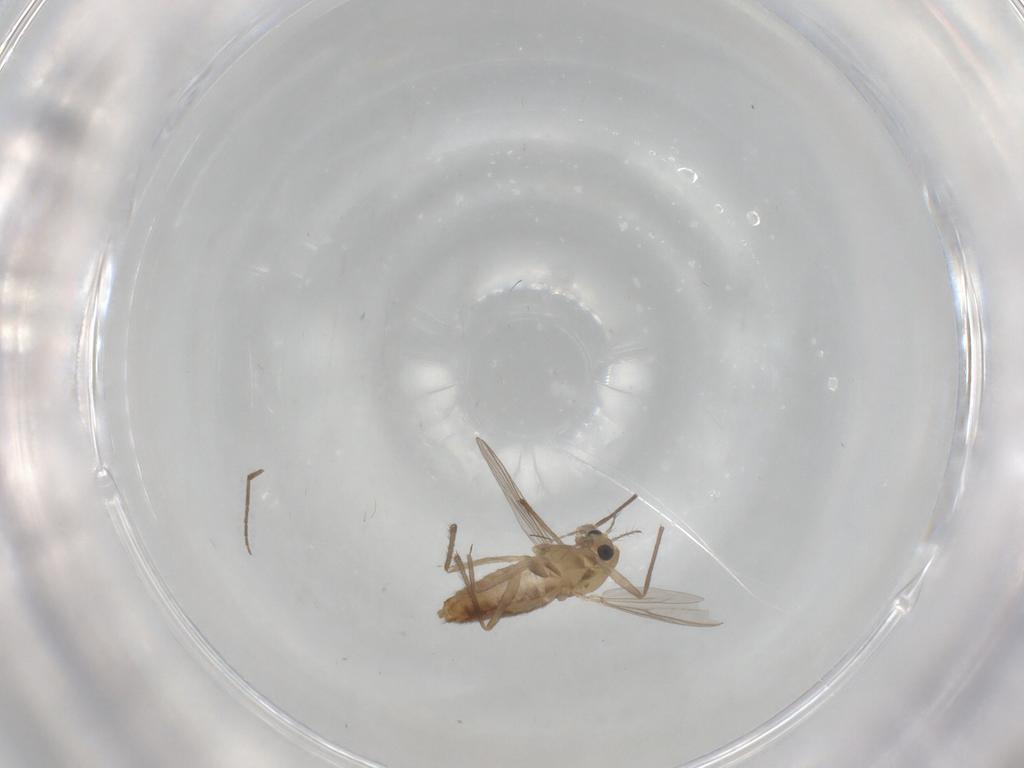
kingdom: Animalia
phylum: Arthropoda
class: Insecta
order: Diptera
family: Chironomidae
